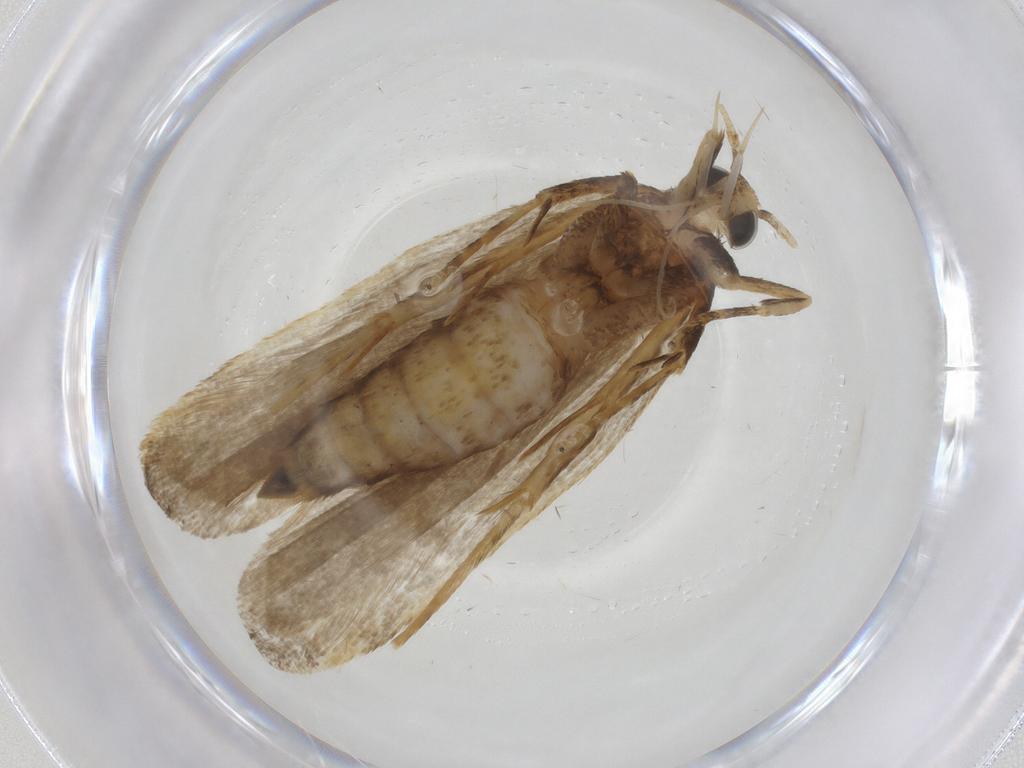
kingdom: Animalia
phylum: Arthropoda
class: Insecta
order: Lepidoptera
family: Autostichidae
